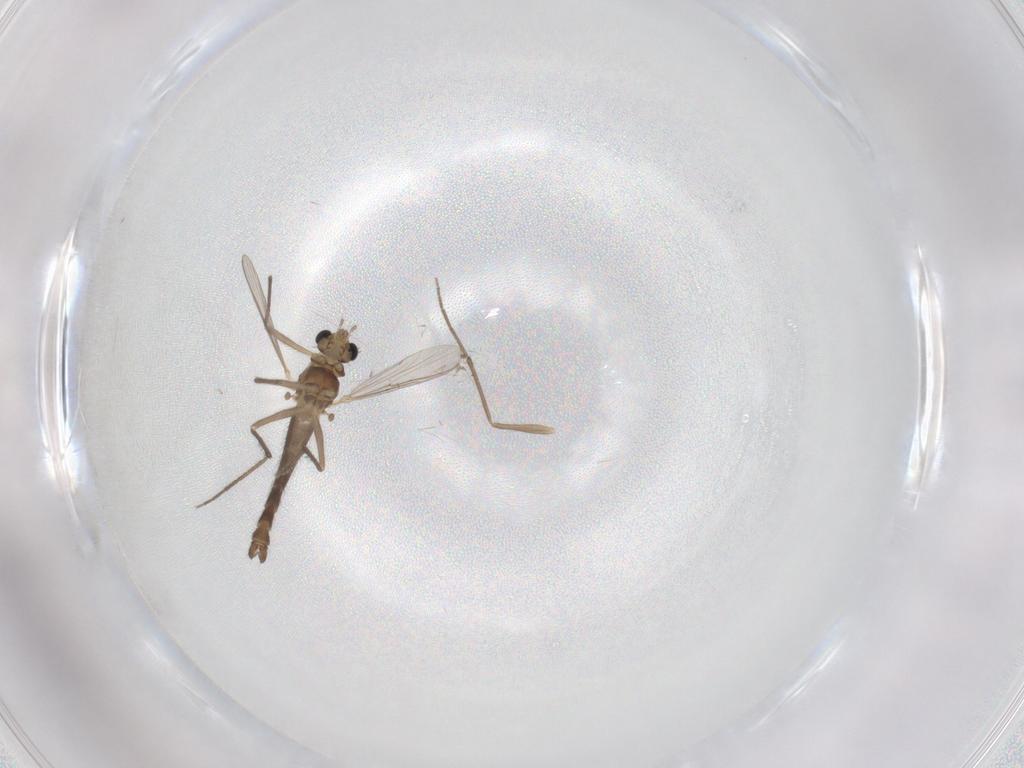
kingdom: Animalia
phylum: Arthropoda
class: Insecta
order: Diptera
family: Chironomidae
